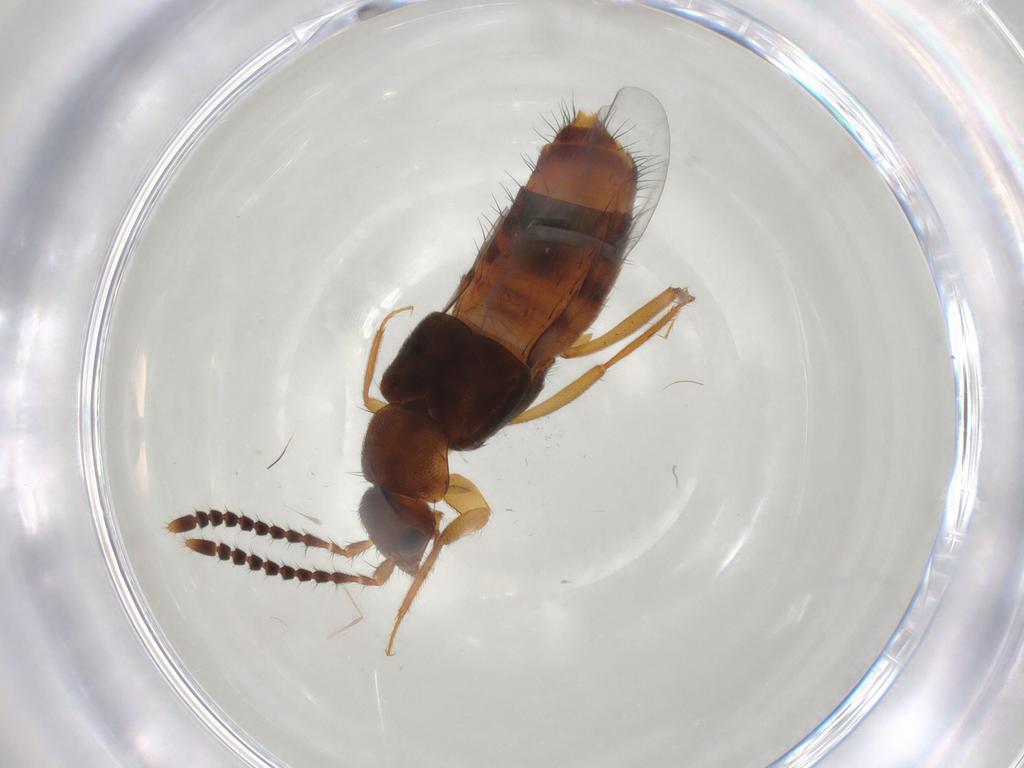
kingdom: Animalia
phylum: Arthropoda
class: Insecta
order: Coleoptera
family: Staphylinidae
